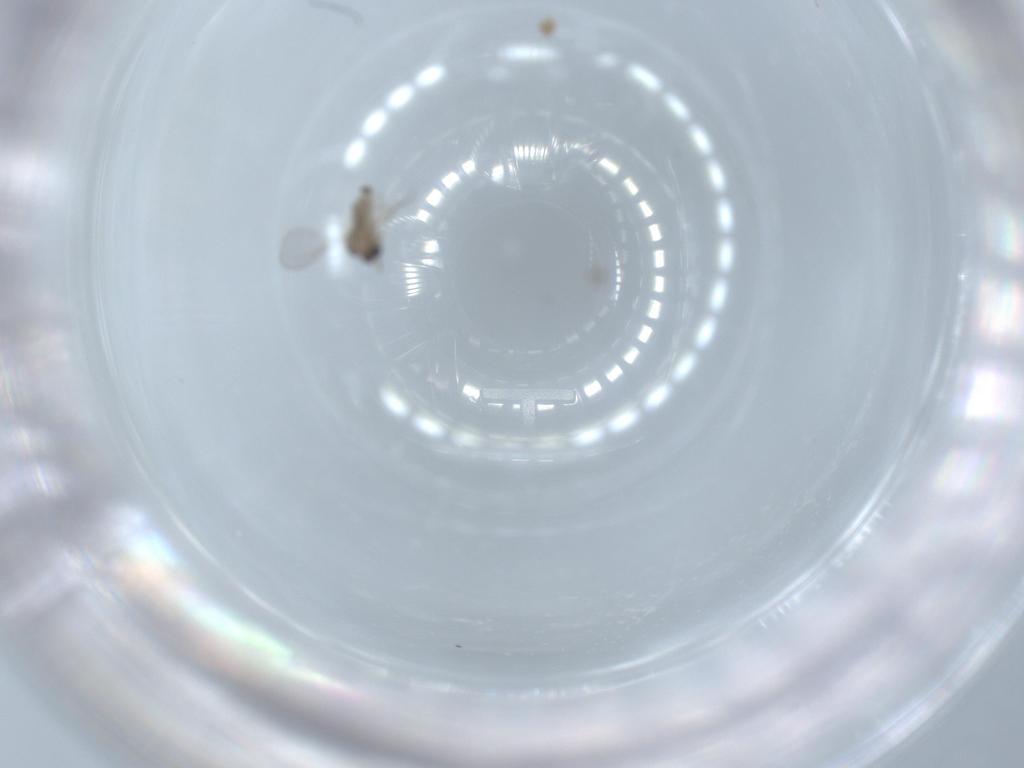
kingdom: Animalia
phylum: Arthropoda
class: Insecta
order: Diptera
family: Cecidomyiidae
